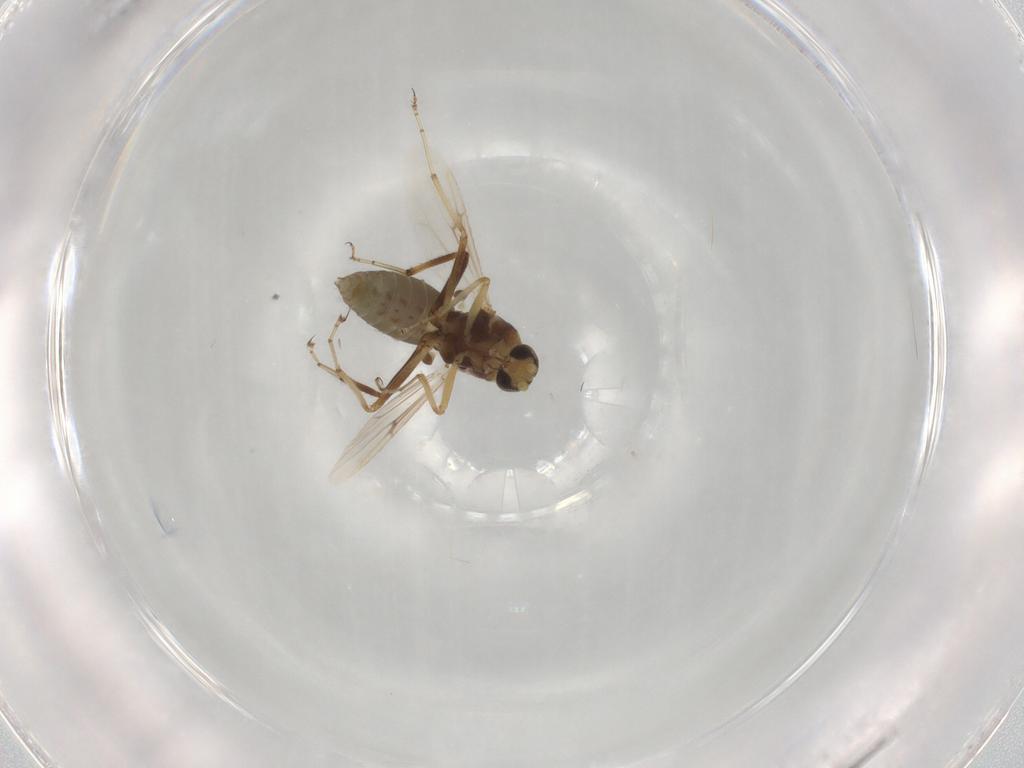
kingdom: Animalia
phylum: Arthropoda
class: Insecta
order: Diptera
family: Ceratopogonidae
